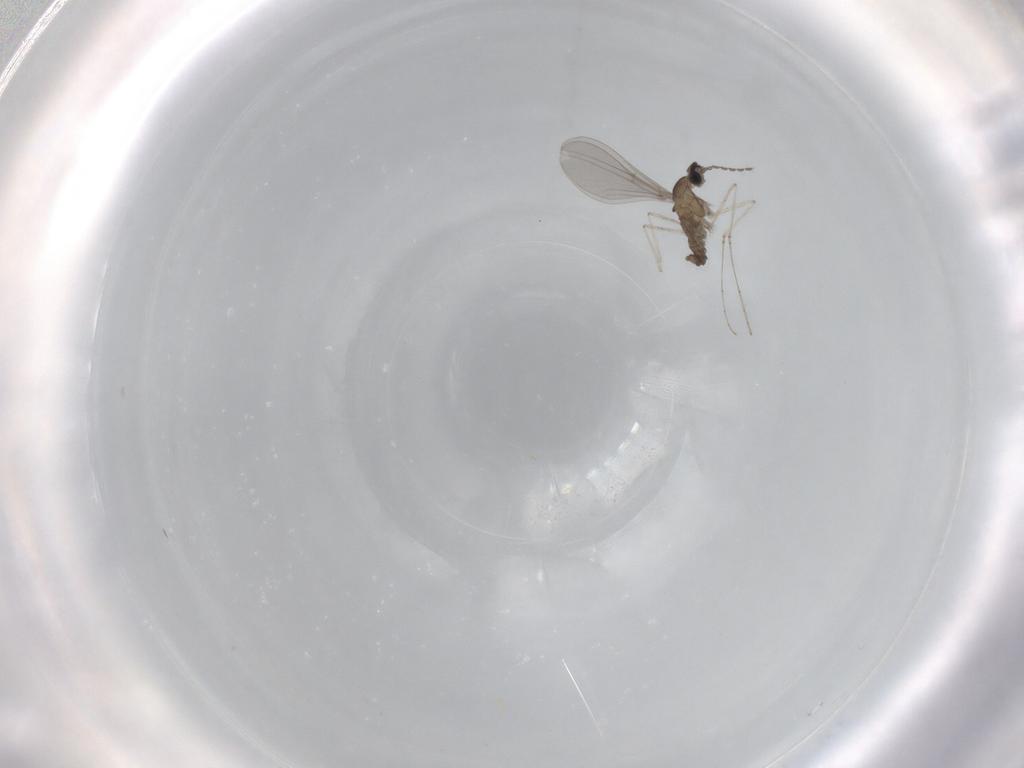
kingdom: Animalia
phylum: Arthropoda
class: Insecta
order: Diptera
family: Cecidomyiidae
